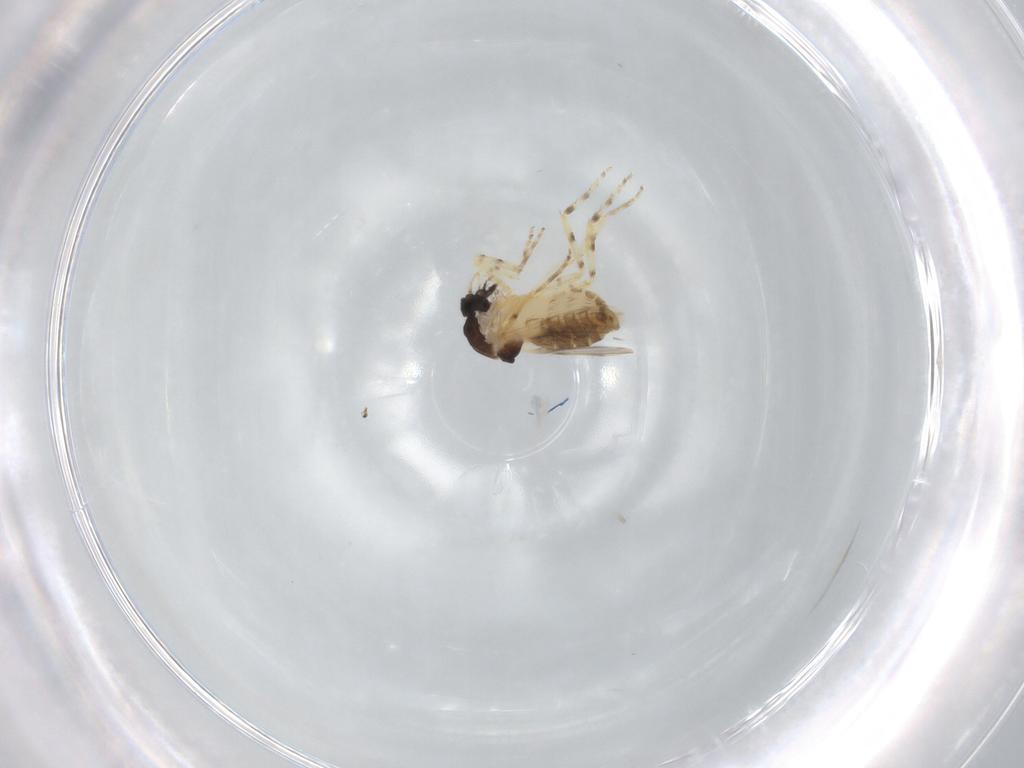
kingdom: Animalia
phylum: Arthropoda
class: Insecta
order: Diptera
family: Ceratopogonidae
